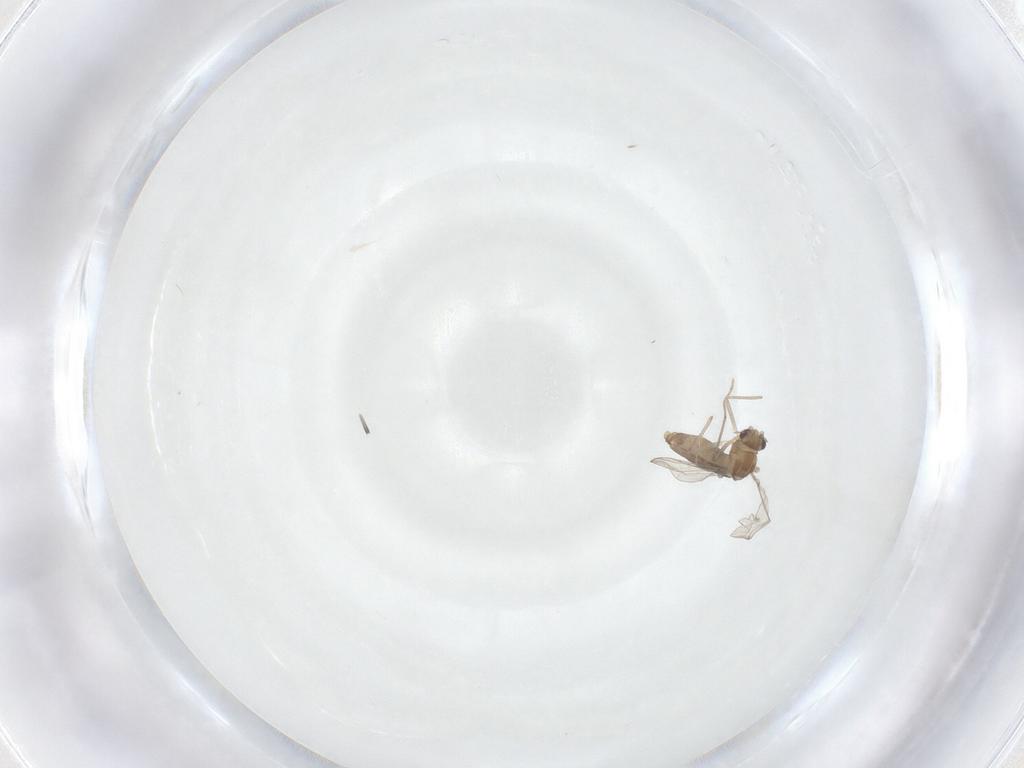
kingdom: Animalia
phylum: Arthropoda
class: Insecta
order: Diptera
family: Chironomidae
